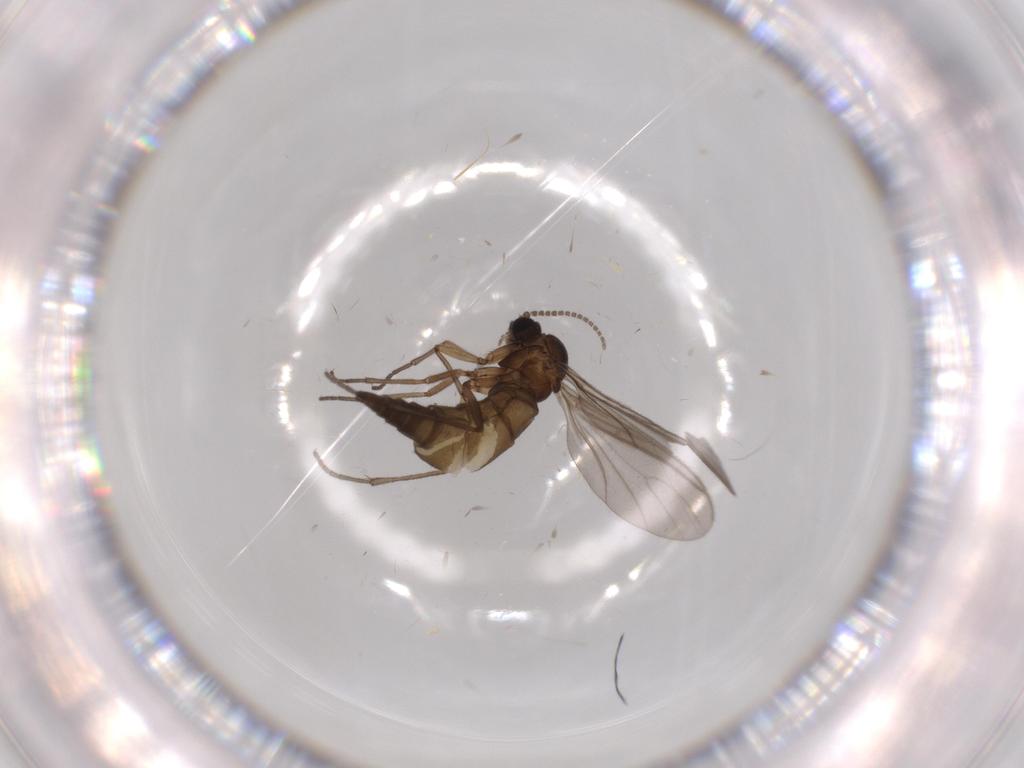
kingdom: Animalia
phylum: Arthropoda
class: Insecta
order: Diptera
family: Sciaridae
